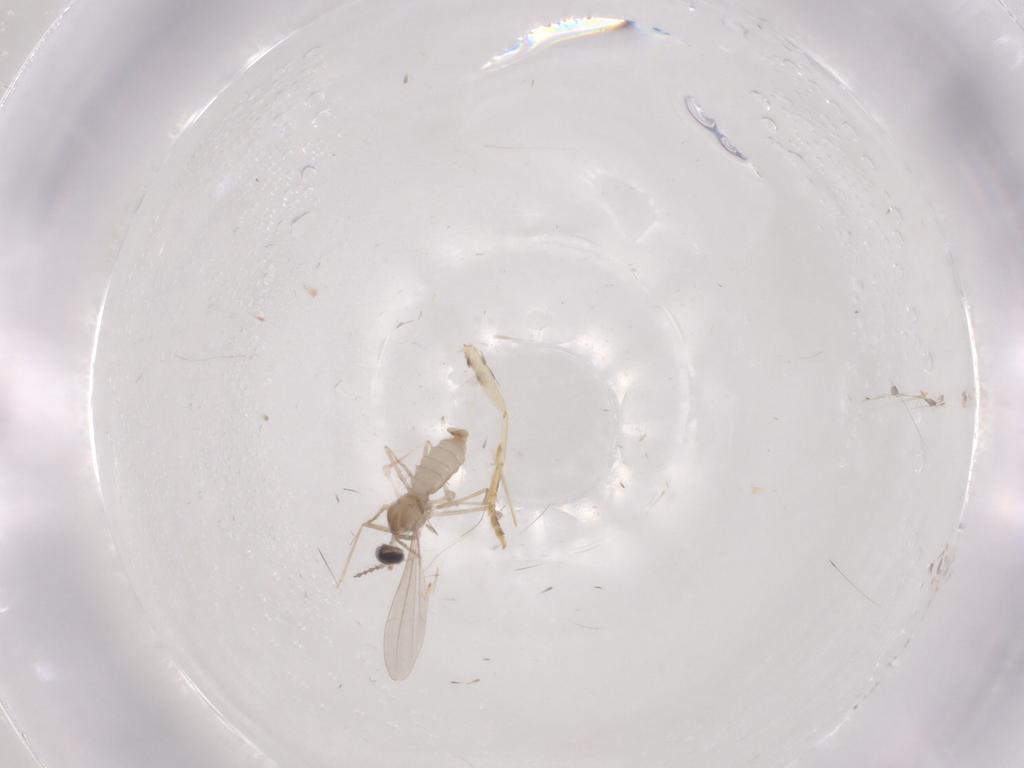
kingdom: Animalia
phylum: Arthropoda
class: Insecta
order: Diptera
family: Cecidomyiidae
